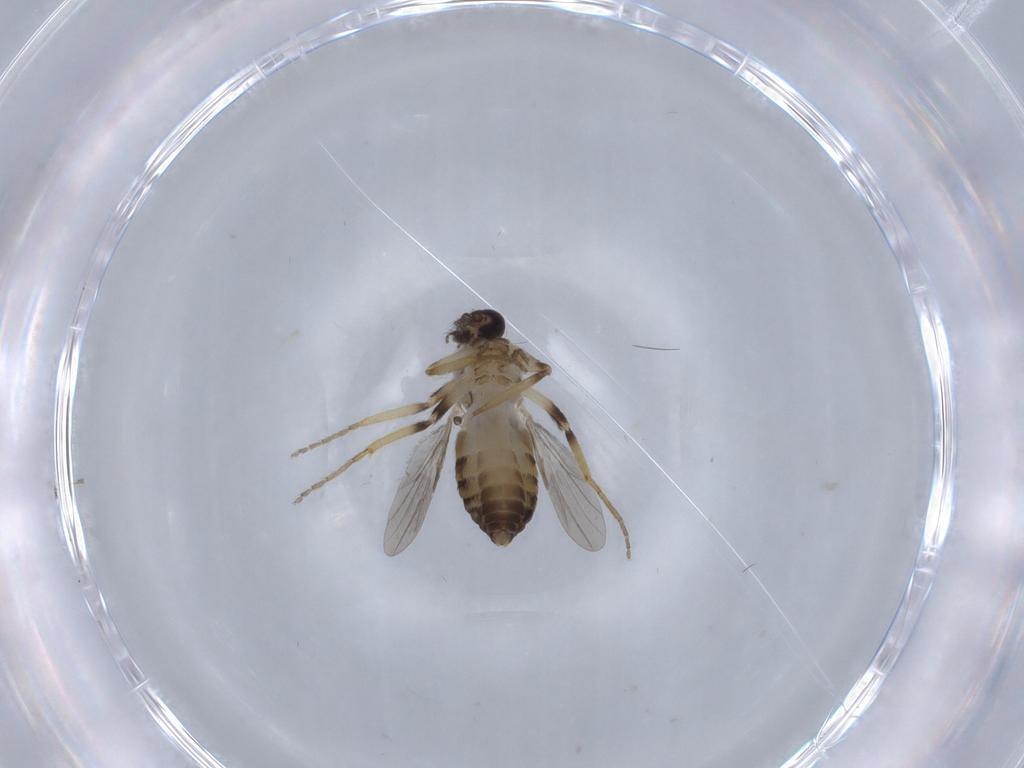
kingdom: Animalia
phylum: Arthropoda
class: Insecta
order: Diptera
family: Ceratopogonidae
